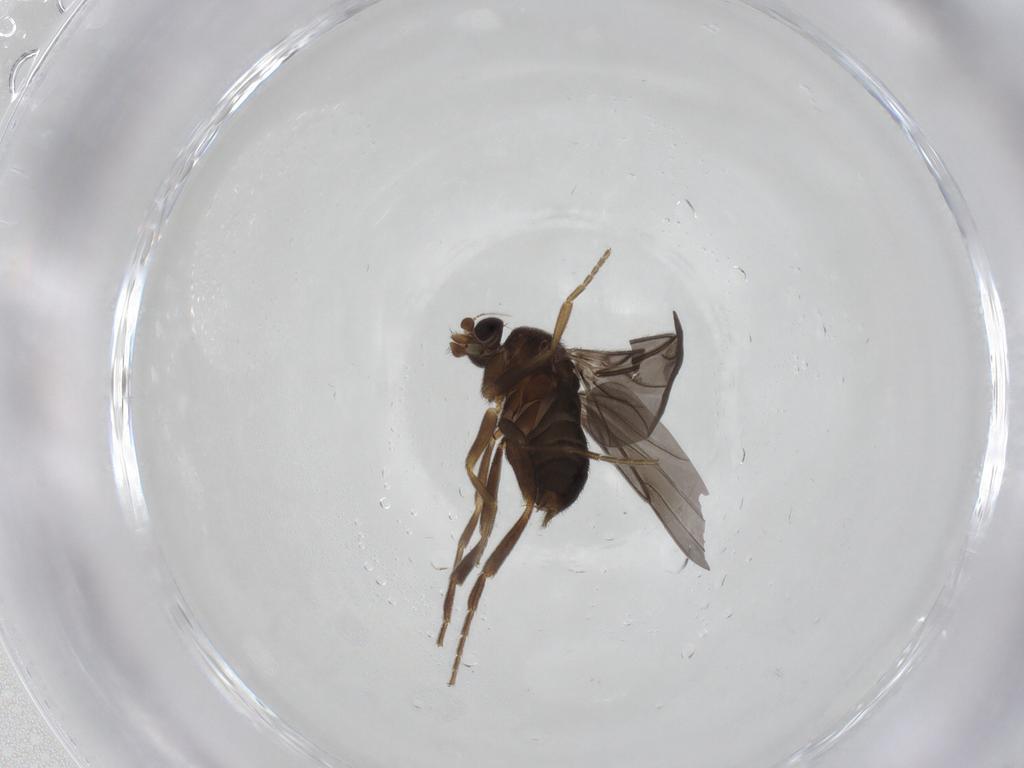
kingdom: Animalia
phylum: Arthropoda
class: Insecta
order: Diptera
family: Phoridae
